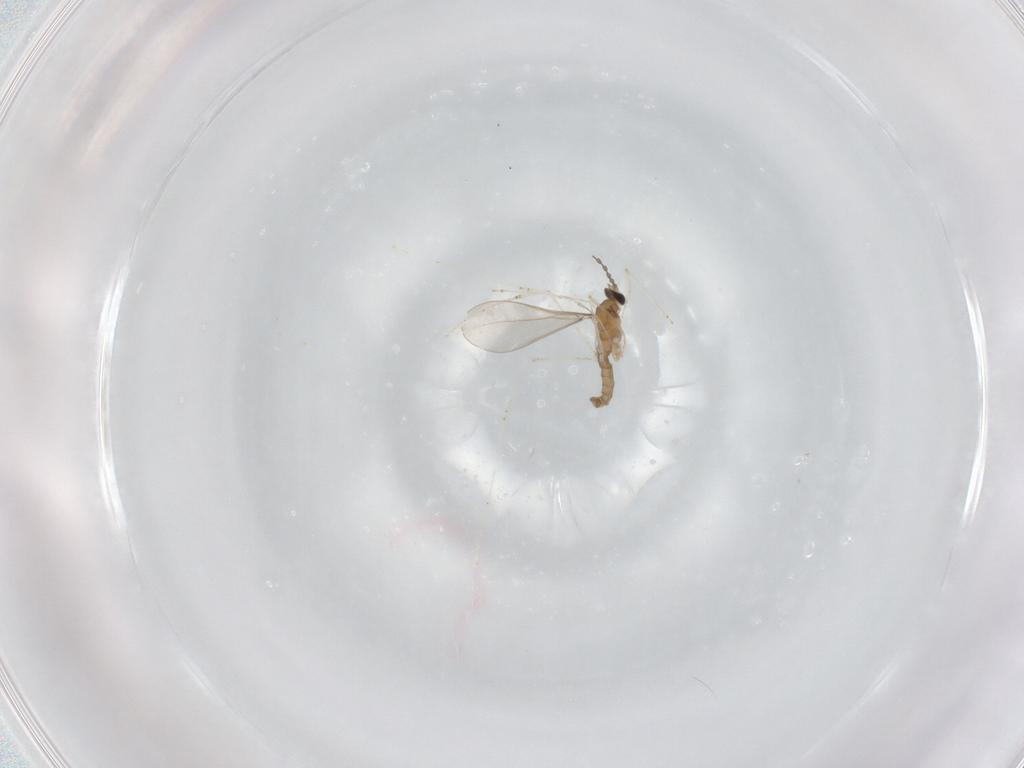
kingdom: Animalia
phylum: Arthropoda
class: Insecta
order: Diptera
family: Cecidomyiidae
